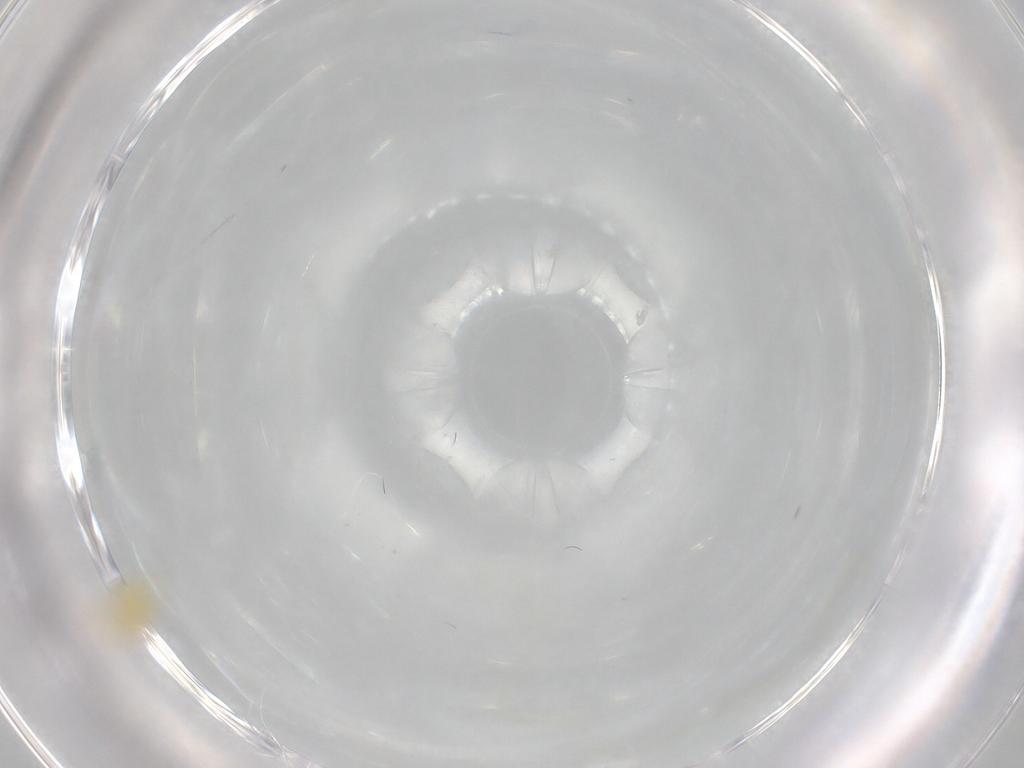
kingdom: Animalia
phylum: Arthropoda
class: Insecta
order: Hemiptera
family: Aleyrodidae
